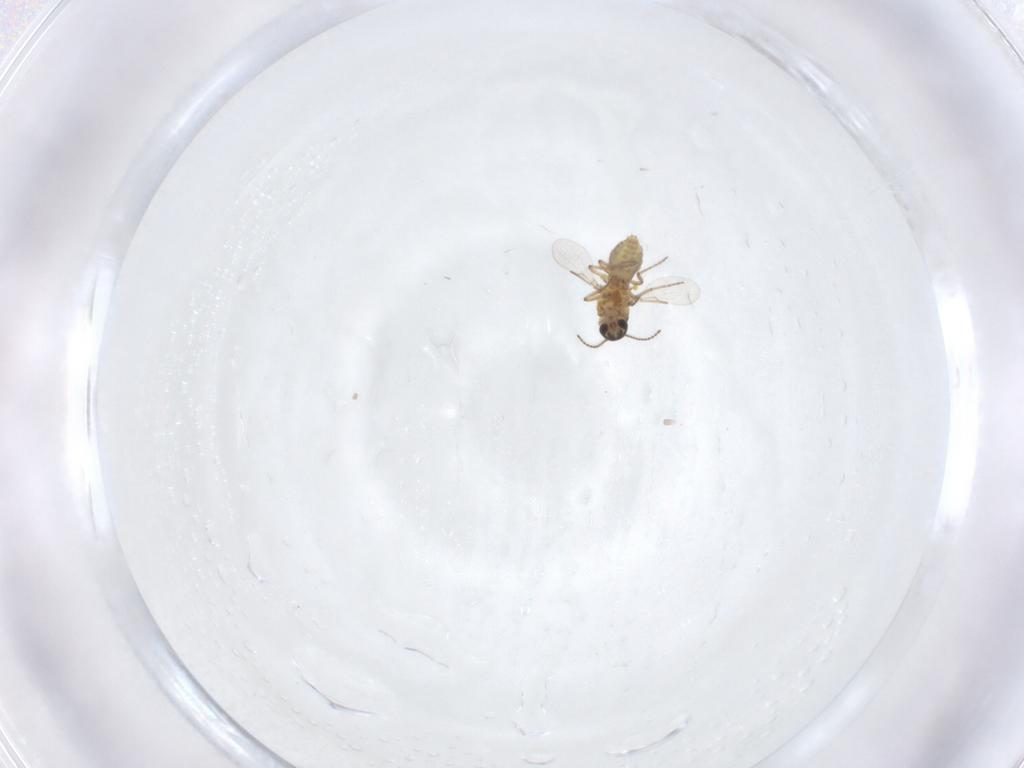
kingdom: Animalia
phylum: Arthropoda
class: Insecta
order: Diptera
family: Ceratopogonidae
